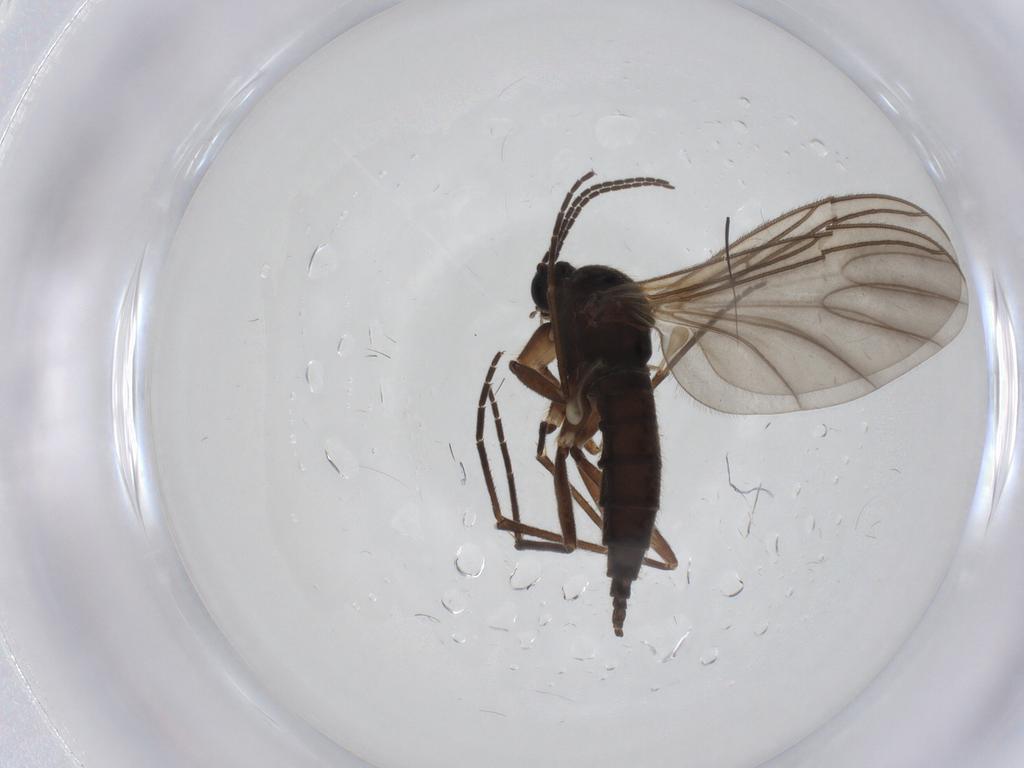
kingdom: Animalia
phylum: Arthropoda
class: Insecta
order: Diptera
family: Sciaridae
